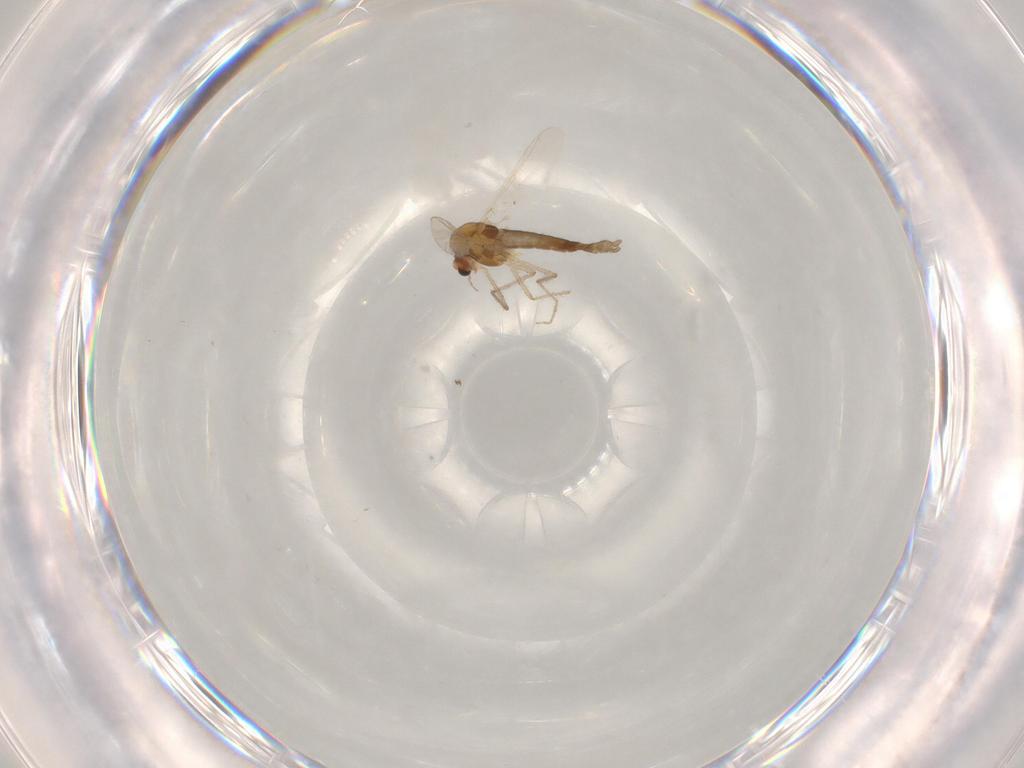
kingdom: Animalia
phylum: Arthropoda
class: Insecta
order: Diptera
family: Chironomidae
